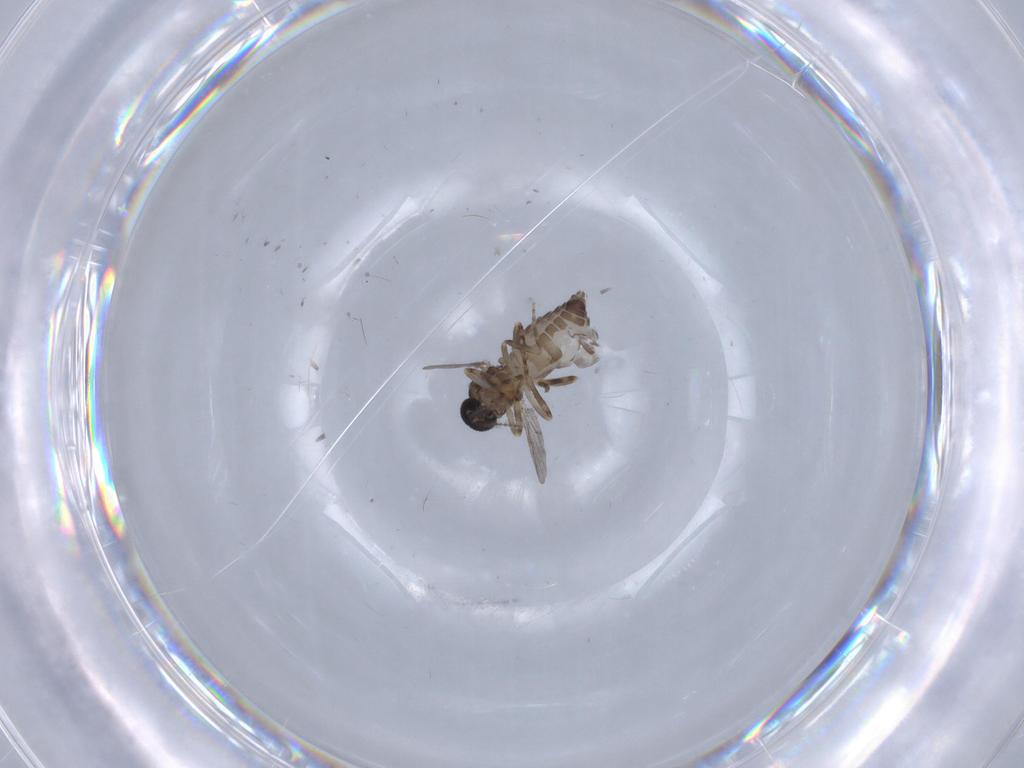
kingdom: Animalia
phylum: Arthropoda
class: Insecta
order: Diptera
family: Ceratopogonidae
